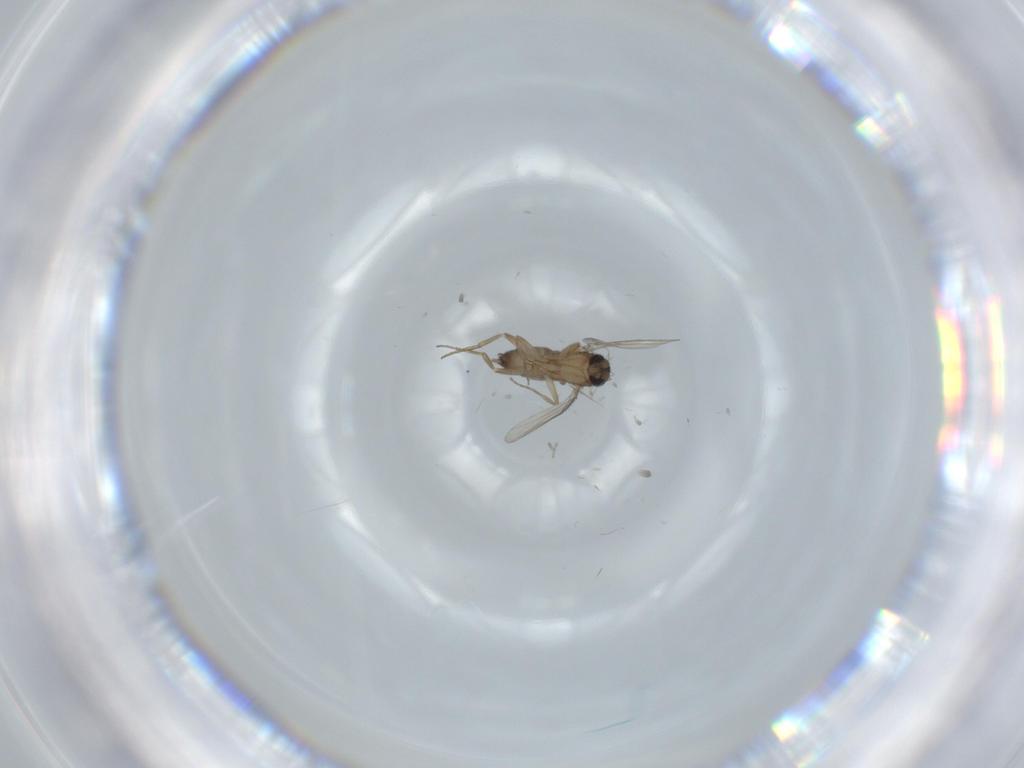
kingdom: Animalia
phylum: Arthropoda
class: Insecta
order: Diptera
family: Phoridae
